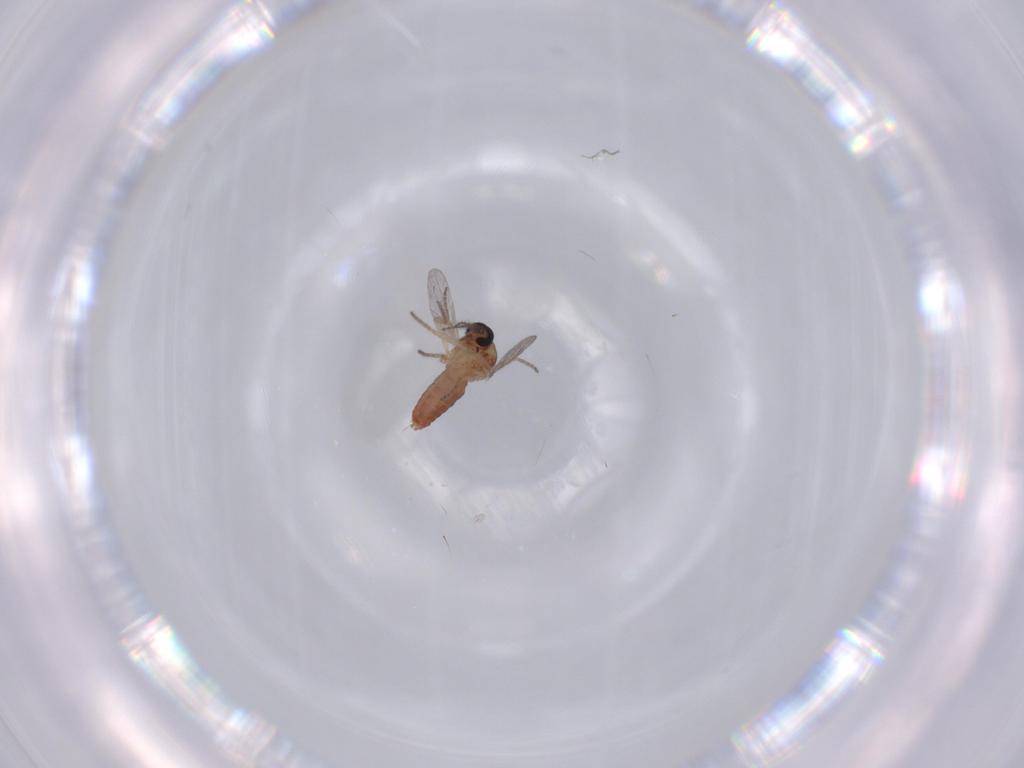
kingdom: Animalia
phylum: Arthropoda
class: Insecta
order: Diptera
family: Ceratopogonidae
